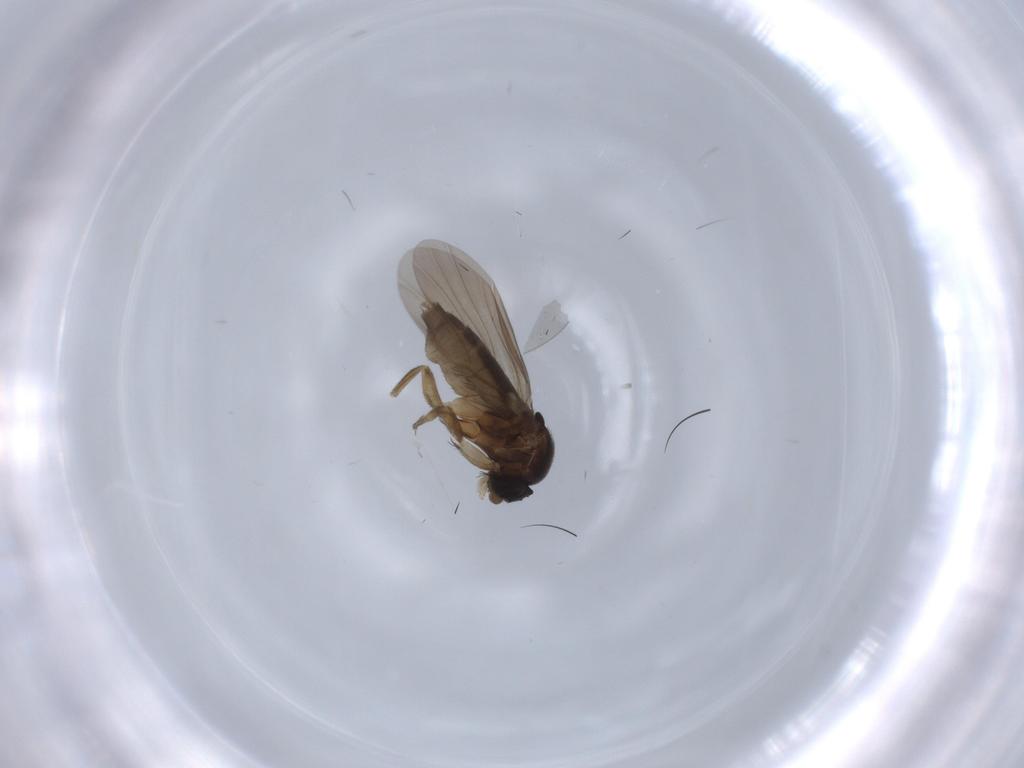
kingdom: Animalia
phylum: Arthropoda
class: Insecta
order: Diptera
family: Phoridae
